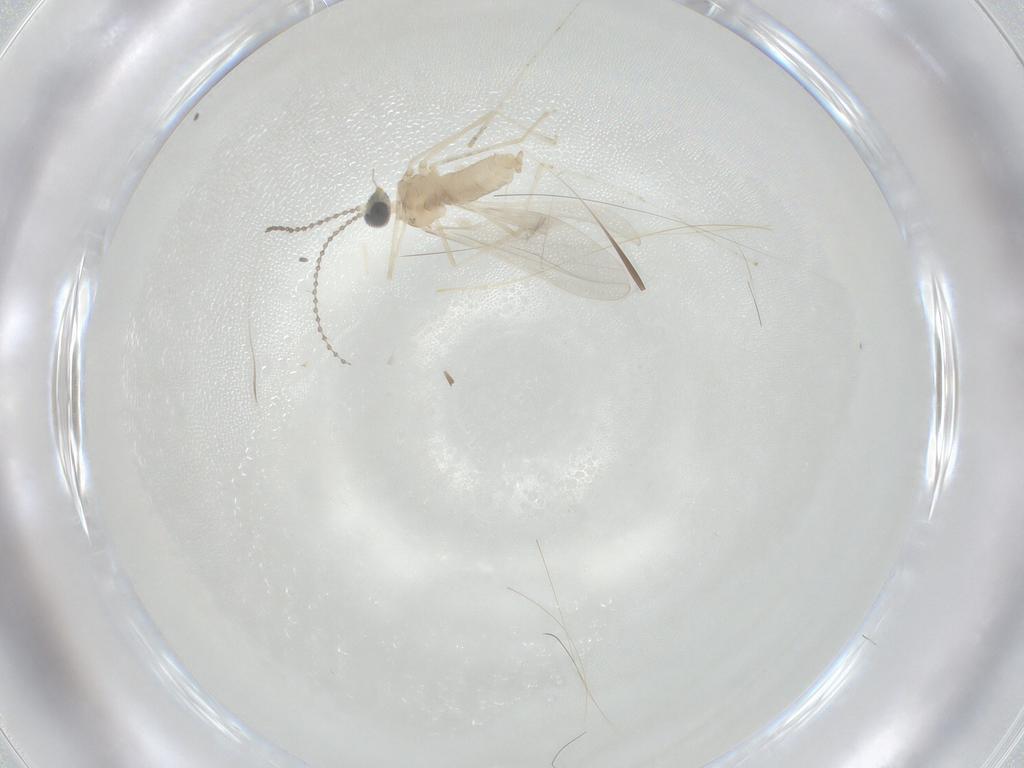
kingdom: Animalia
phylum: Arthropoda
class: Insecta
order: Diptera
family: Cecidomyiidae
